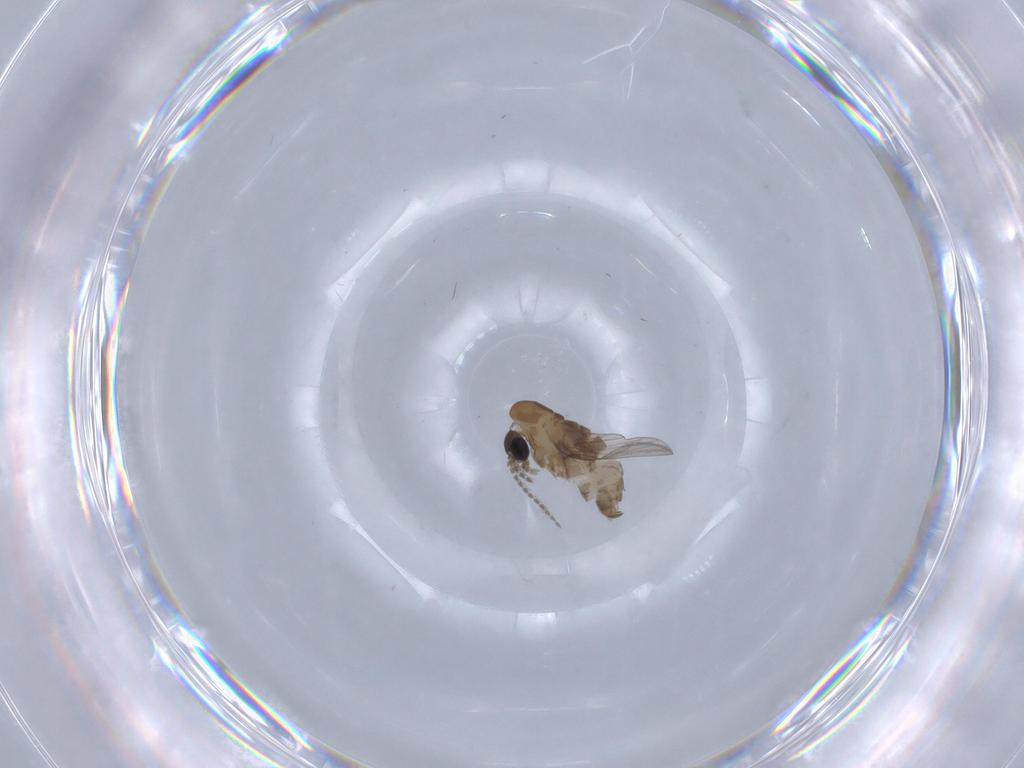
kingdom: Animalia
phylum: Arthropoda
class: Insecta
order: Diptera
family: Psychodidae
